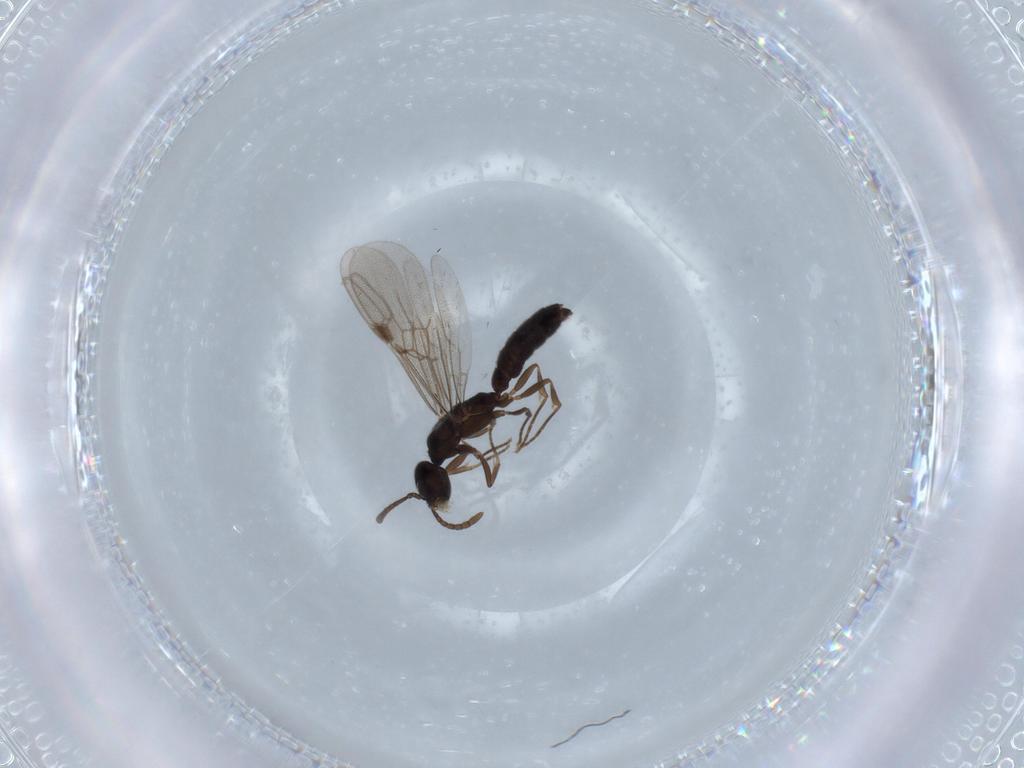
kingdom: Animalia
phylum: Arthropoda
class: Insecta
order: Hymenoptera
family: Formicidae
